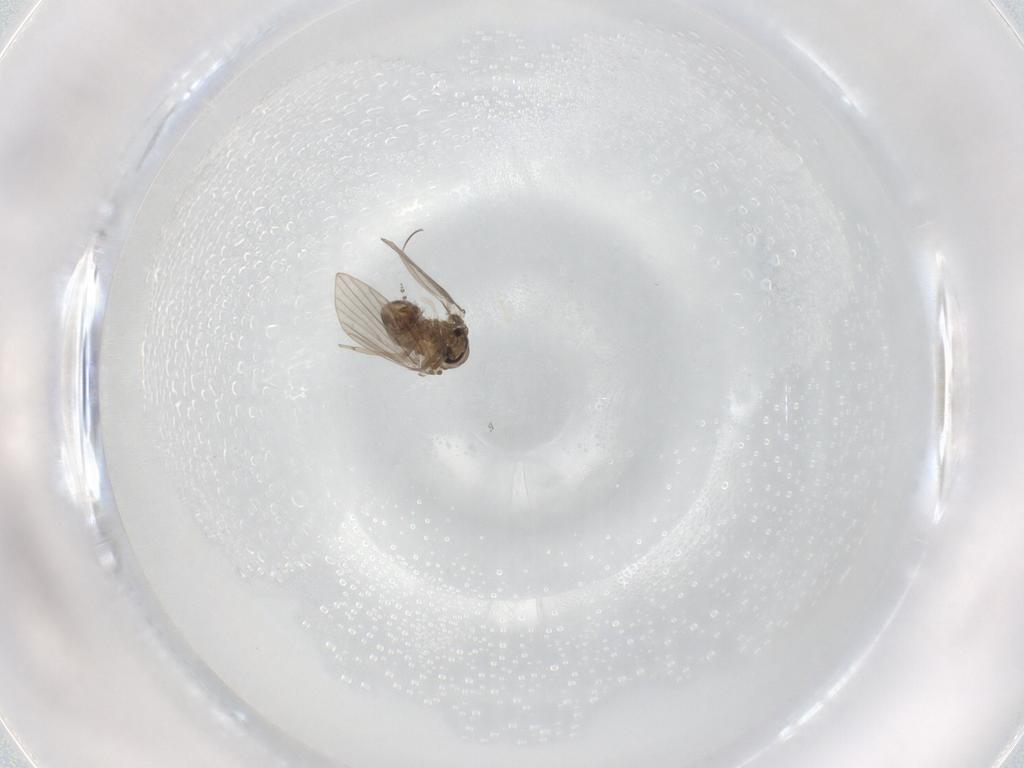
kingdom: Animalia
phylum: Arthropoda
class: Insecta
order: Diptera
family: Psychodidae
